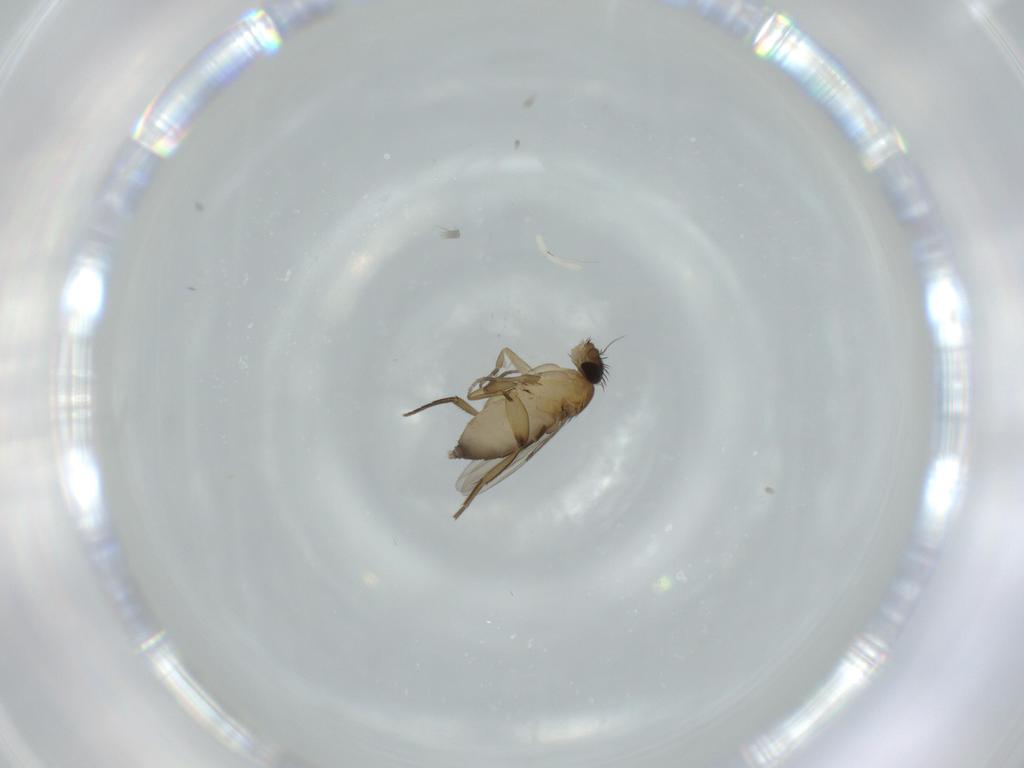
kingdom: Animalia
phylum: Arthropoda
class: Insecta
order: Diptera
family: Phoridae
